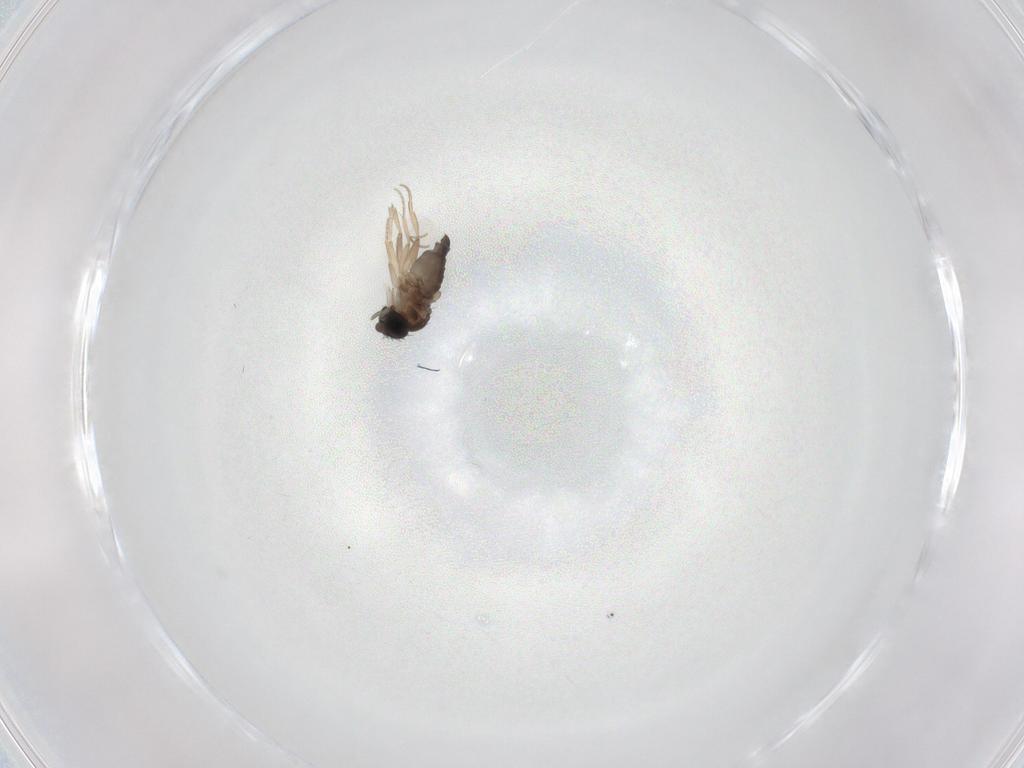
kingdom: Animalia
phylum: Arthropoda
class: Insecta
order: Diptera
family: Phoridae
